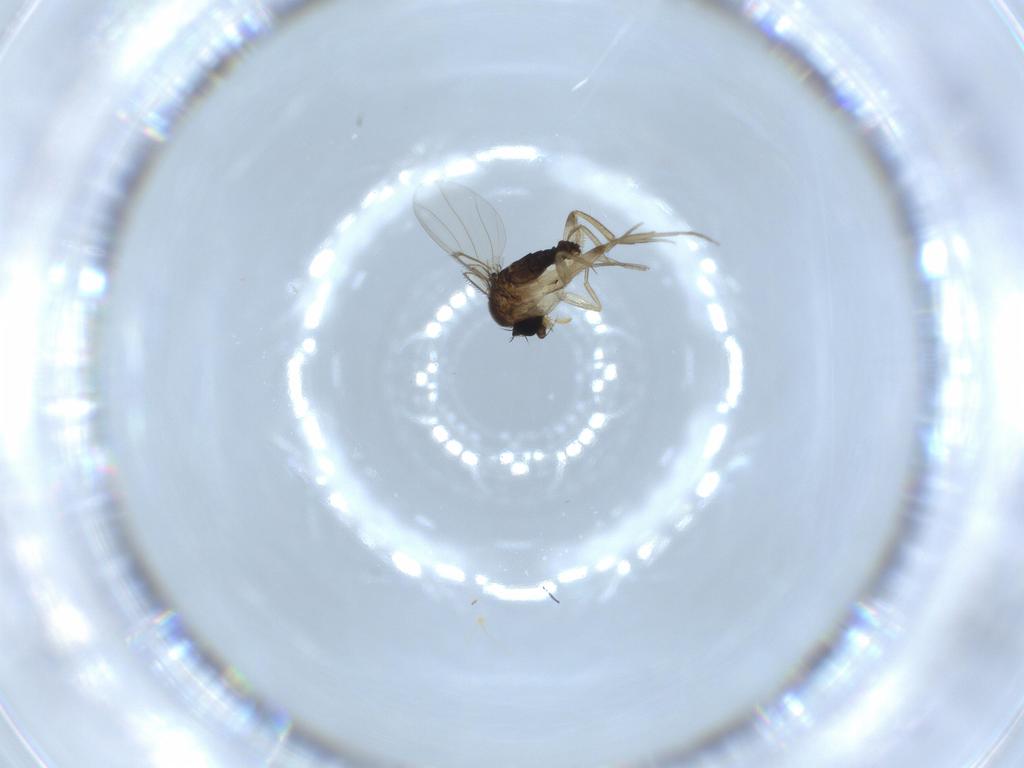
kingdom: Animalia
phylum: Arthropoda
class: Insecta
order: Diptera
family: Phoridae
